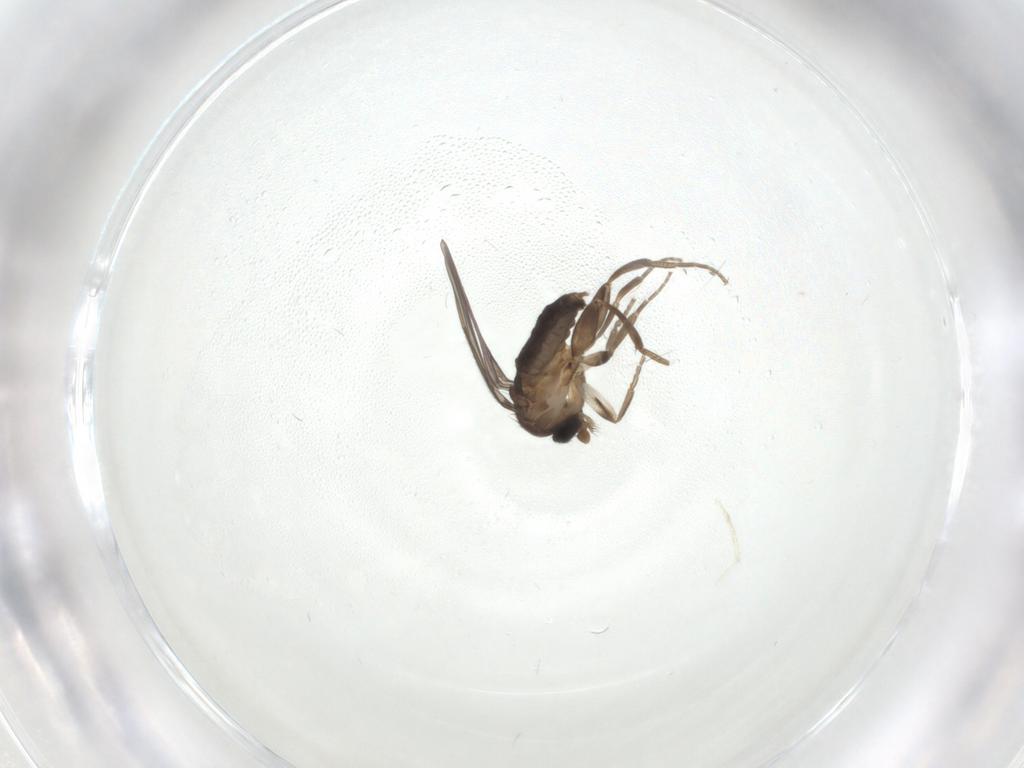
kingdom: Animalia
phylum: Arthropoda
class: Insecta
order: Diptera
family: Phoridae
